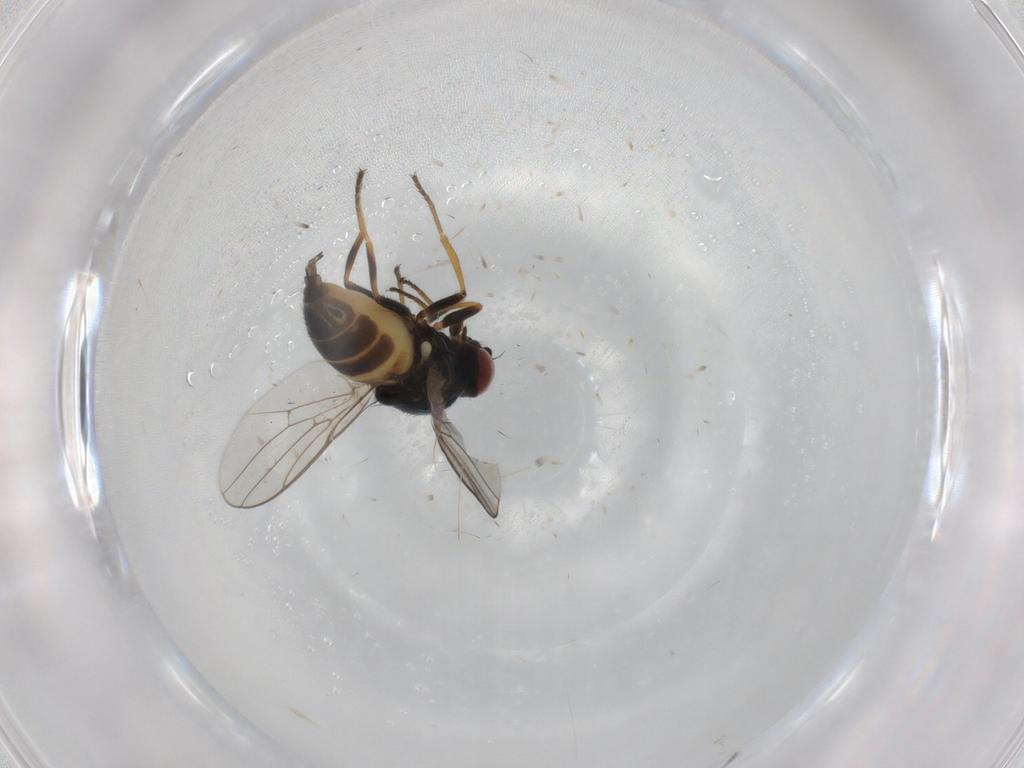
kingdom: Animalia
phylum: Arthropoda
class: Insecta
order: Diptera
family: Chloropidae
